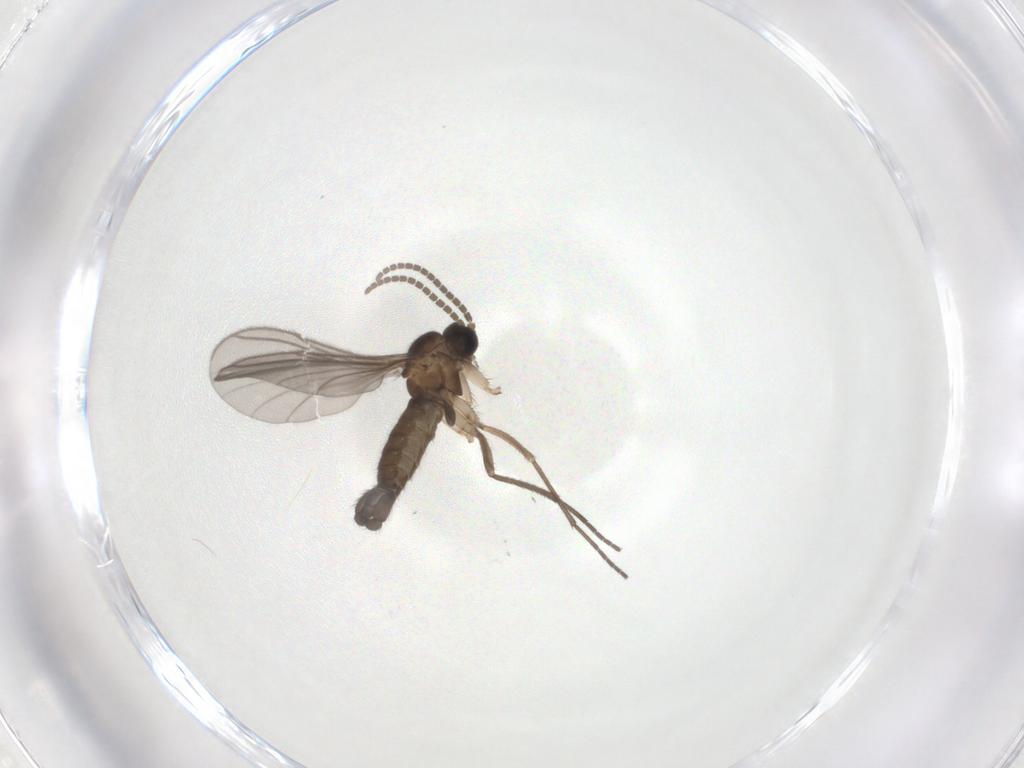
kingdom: Animalia
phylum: Arthropoda
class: Insecta
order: Diptera
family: Sciaridae
